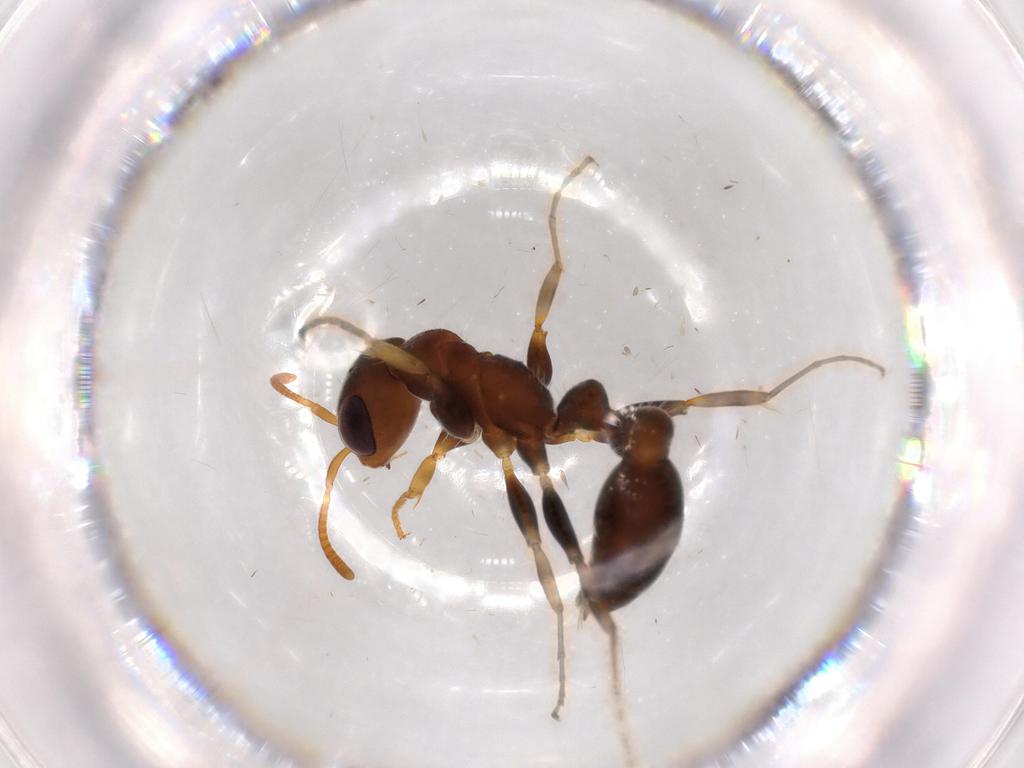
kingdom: Animalia
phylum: Arthropoda
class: Insecta
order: Hymenoptera
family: Formicidae
